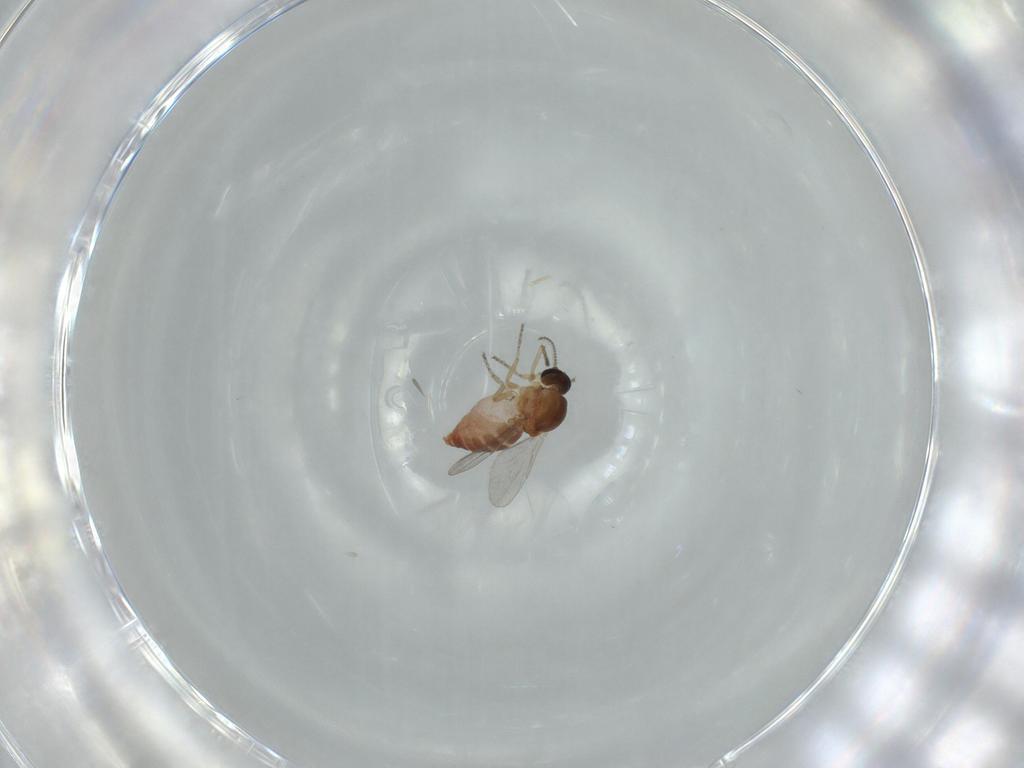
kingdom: Animalia
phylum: Arthropoda
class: Insecta
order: Diptera
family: Ceratopogonidae
